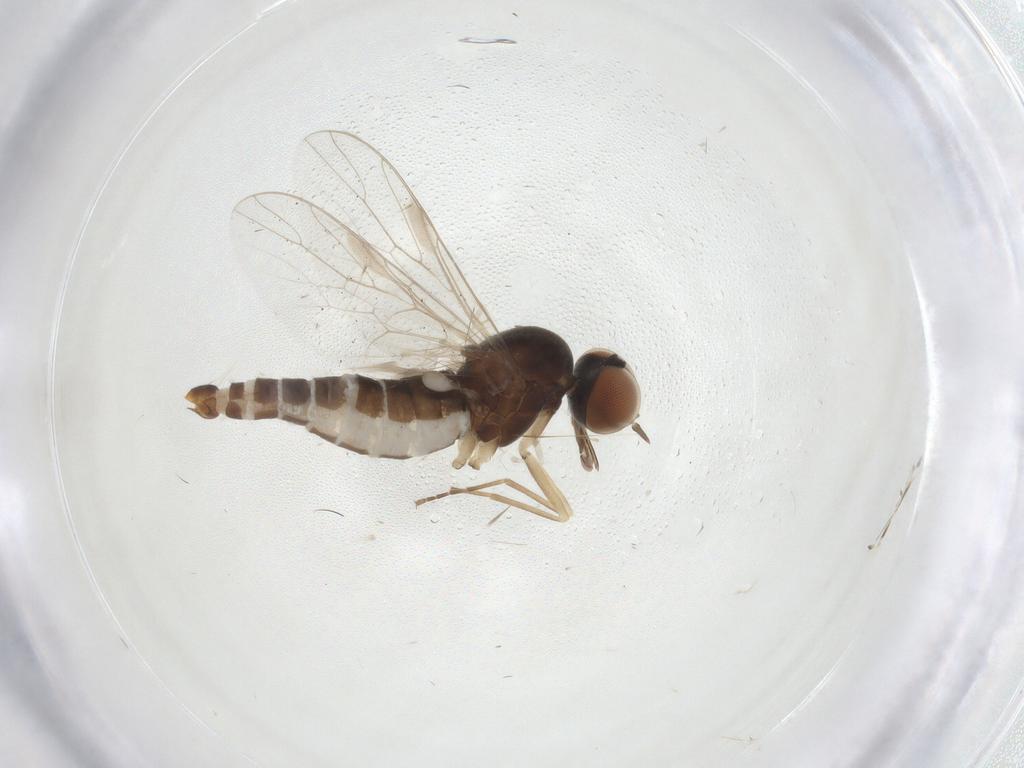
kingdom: Animalia
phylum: Arthropoda
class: Insecta
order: Diptera
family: Scenopinidae
